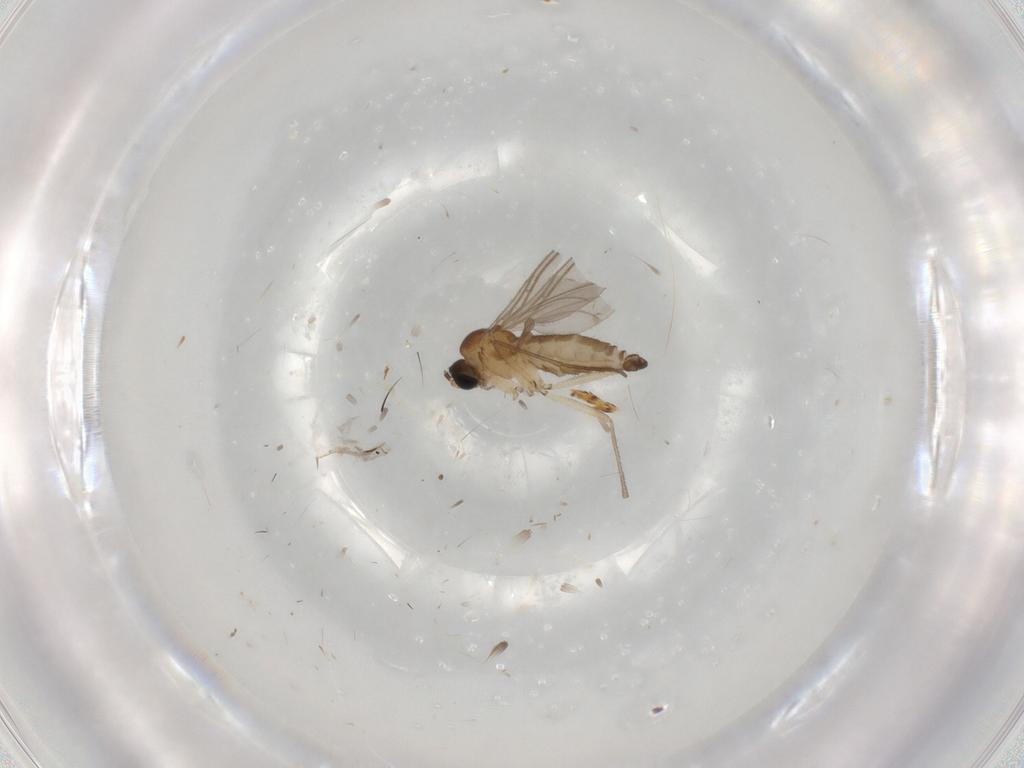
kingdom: Animalia
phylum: Arthropoda
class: Insecta
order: Diptera
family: Sciaridae
